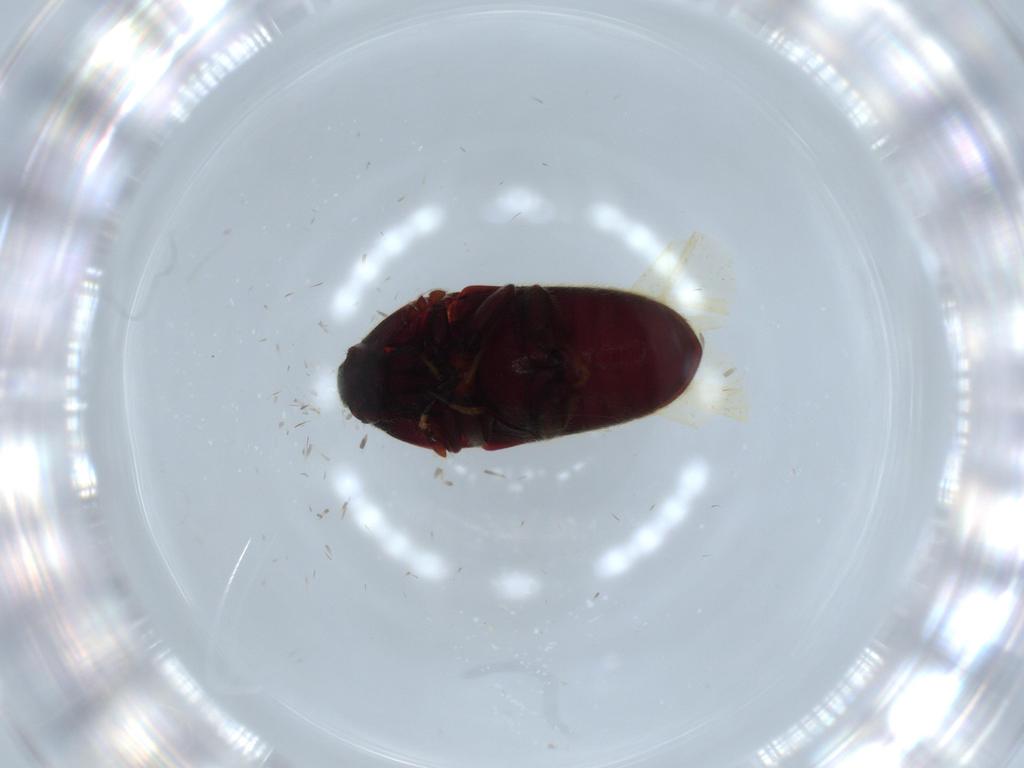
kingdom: Animalia
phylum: Arthropoda
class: Insecta
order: Coleoptera
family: Throscidae
